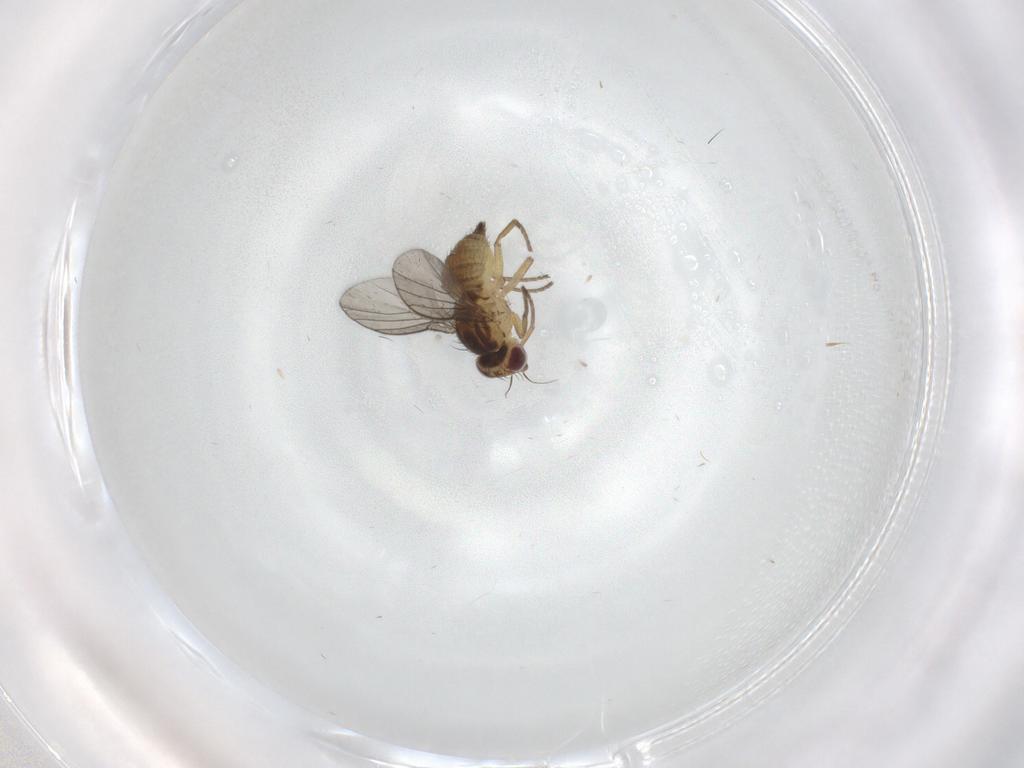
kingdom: Animalia
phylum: Arthropoda
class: Insecta
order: Diptera
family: Agromyzidae
